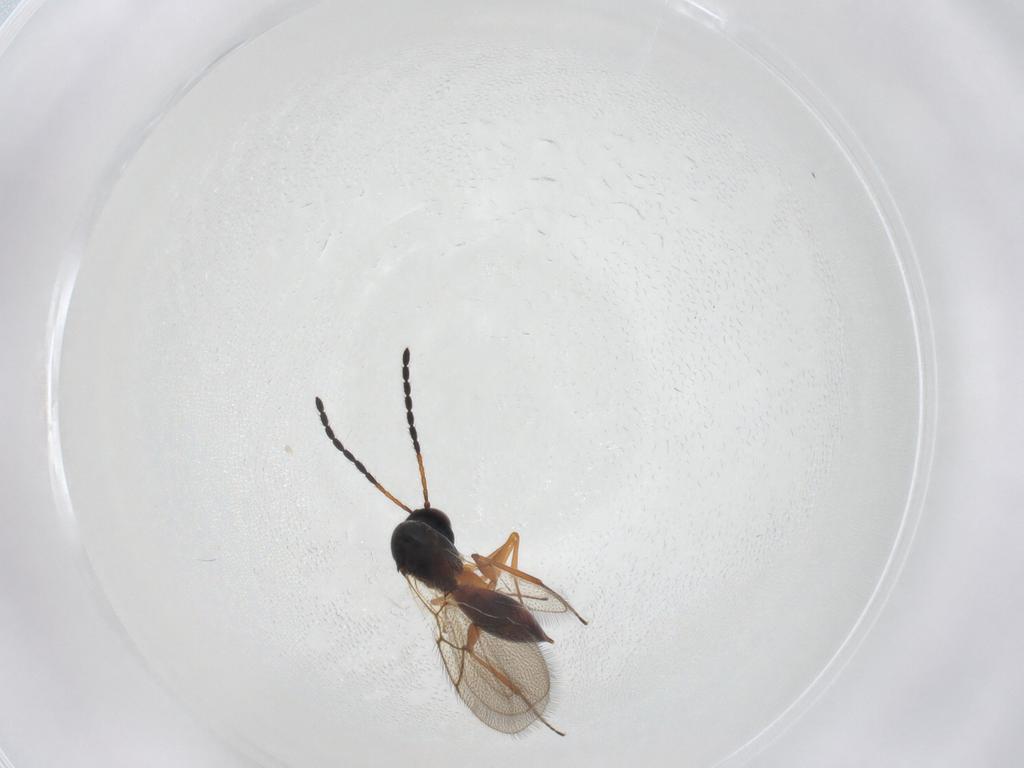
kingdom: Animalia
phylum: Arthropoda
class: Insecta
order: Hymenoptera
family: Figitidae
